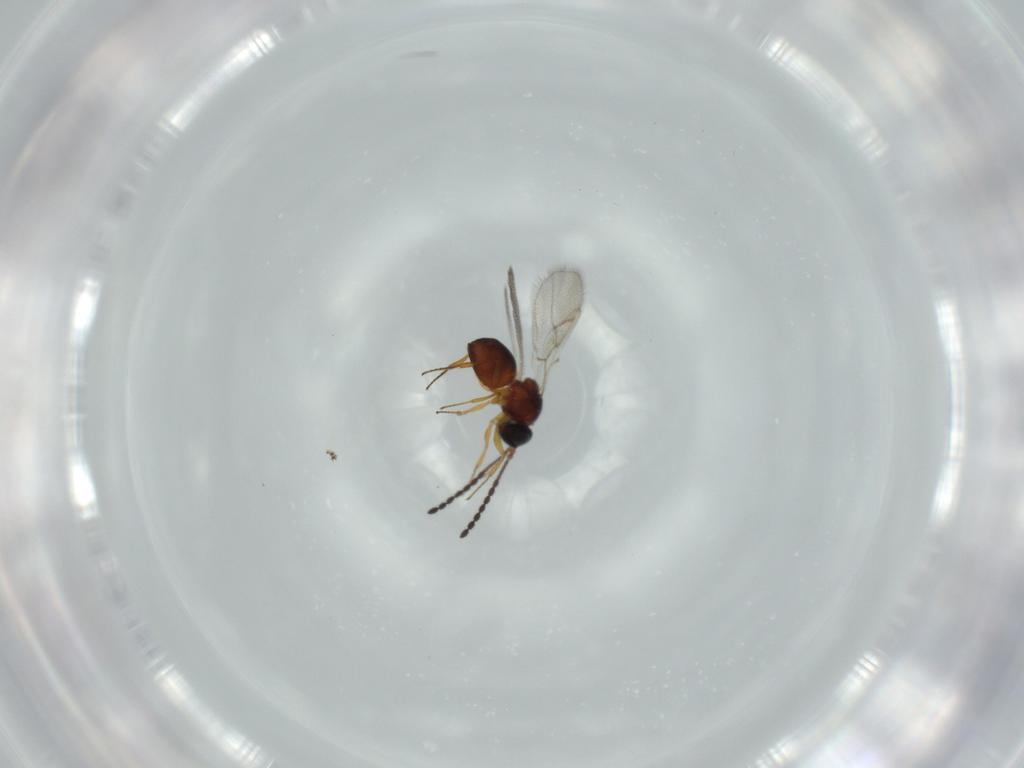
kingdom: Animalia
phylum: Arthropoda
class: Insecta
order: Hymenoptera
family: Figitidae
